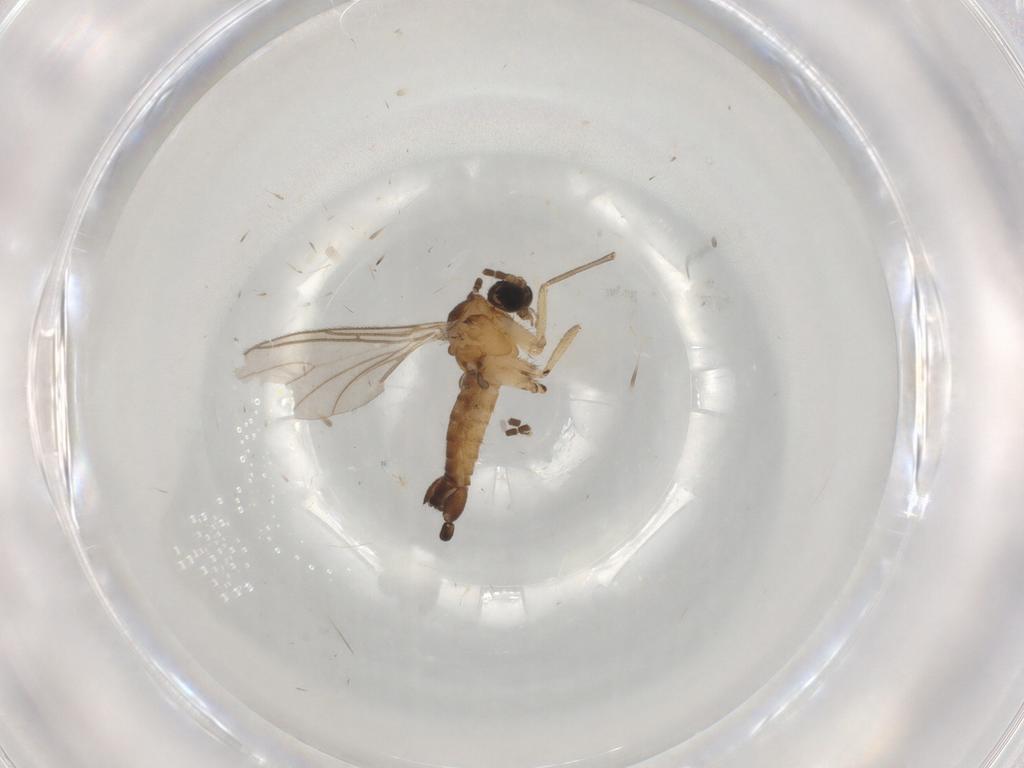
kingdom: Animalia
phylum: Arthropoda
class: Insecta
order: Diptera
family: Sciaridae
